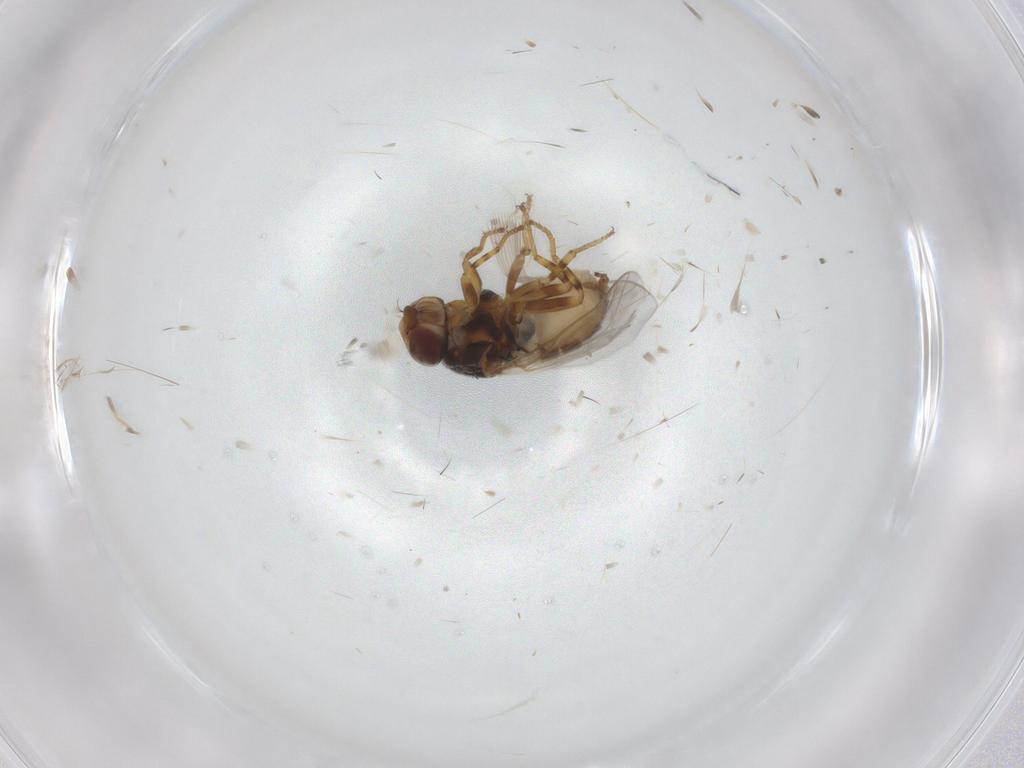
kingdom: Animalia
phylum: Arthropoda
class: Insecta
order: Diptera
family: Chloropidae
